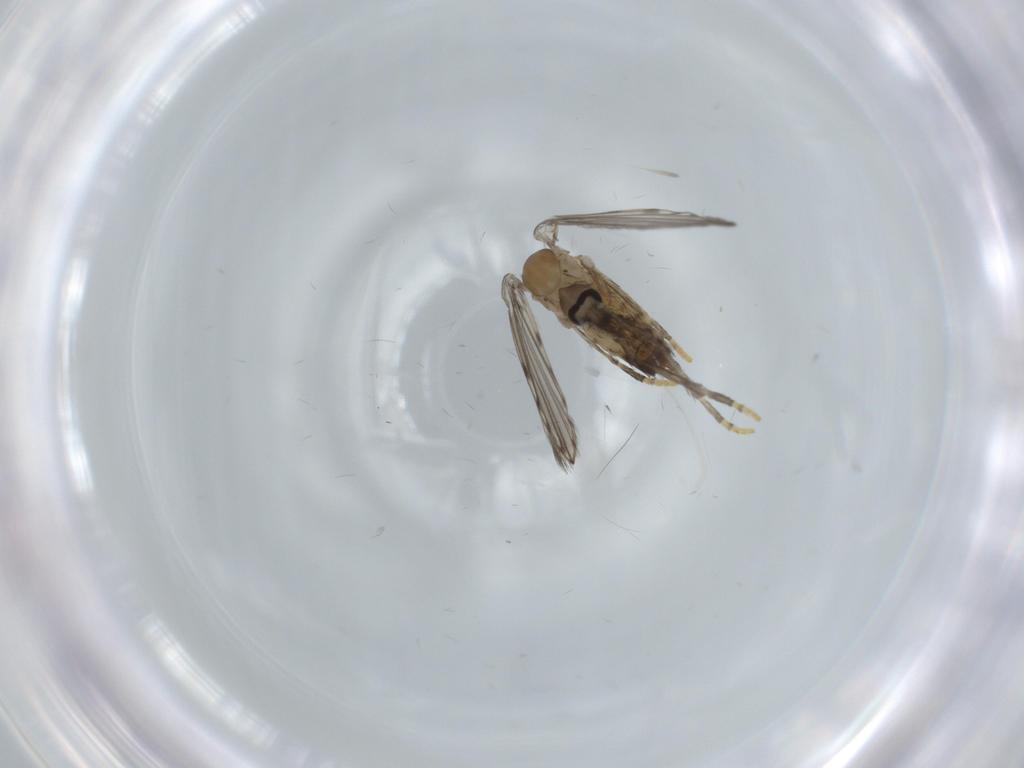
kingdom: Animalia
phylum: Arthropoda
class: Insecta
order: Diptera
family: Psychodidae
